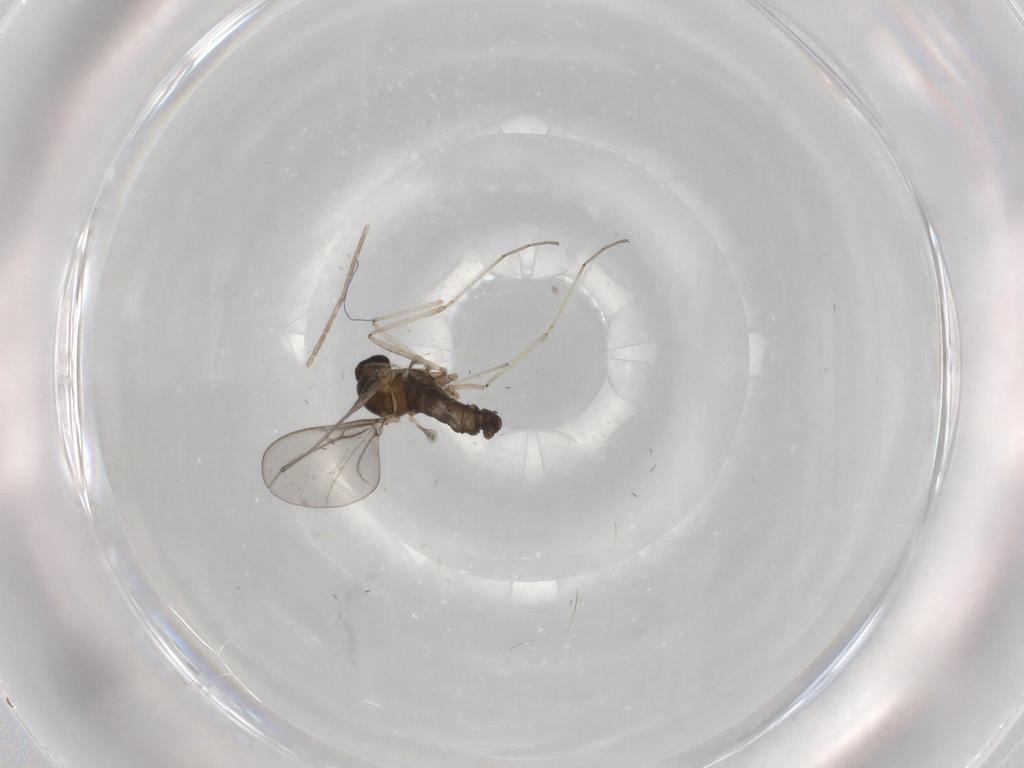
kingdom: Animalia
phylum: Arthropoda
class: Insecta
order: Diptera
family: Cecidomyiidae
